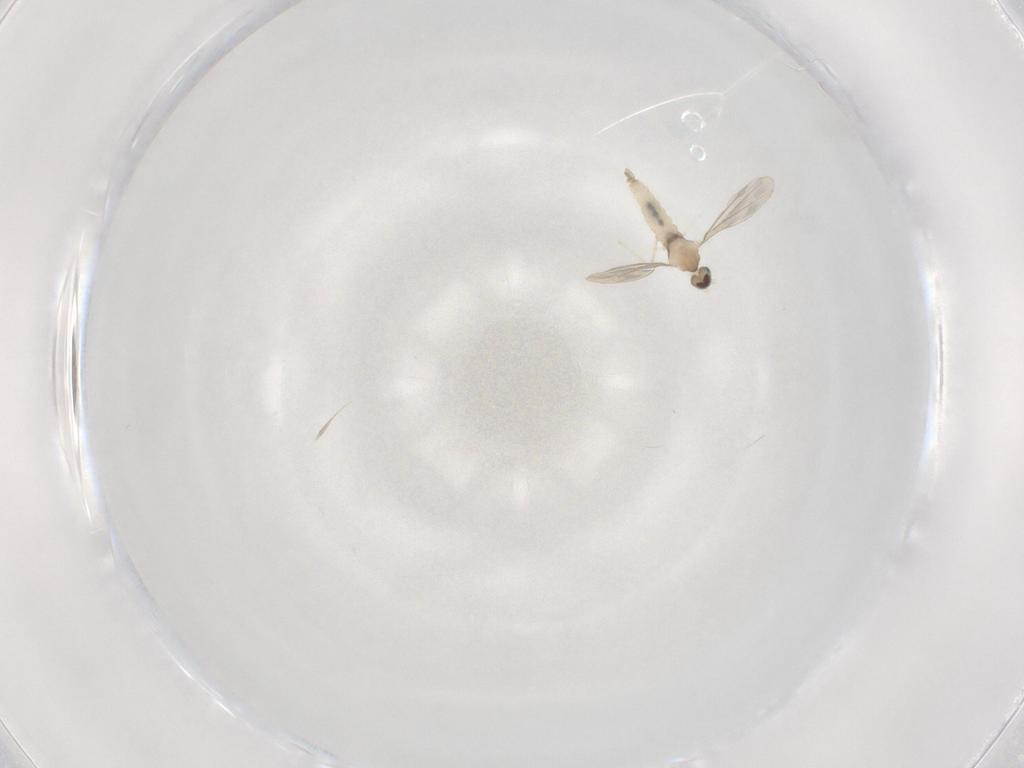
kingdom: Animalia
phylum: Arthropoda
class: Insecta
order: Diptera
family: Cecidomyiidae
